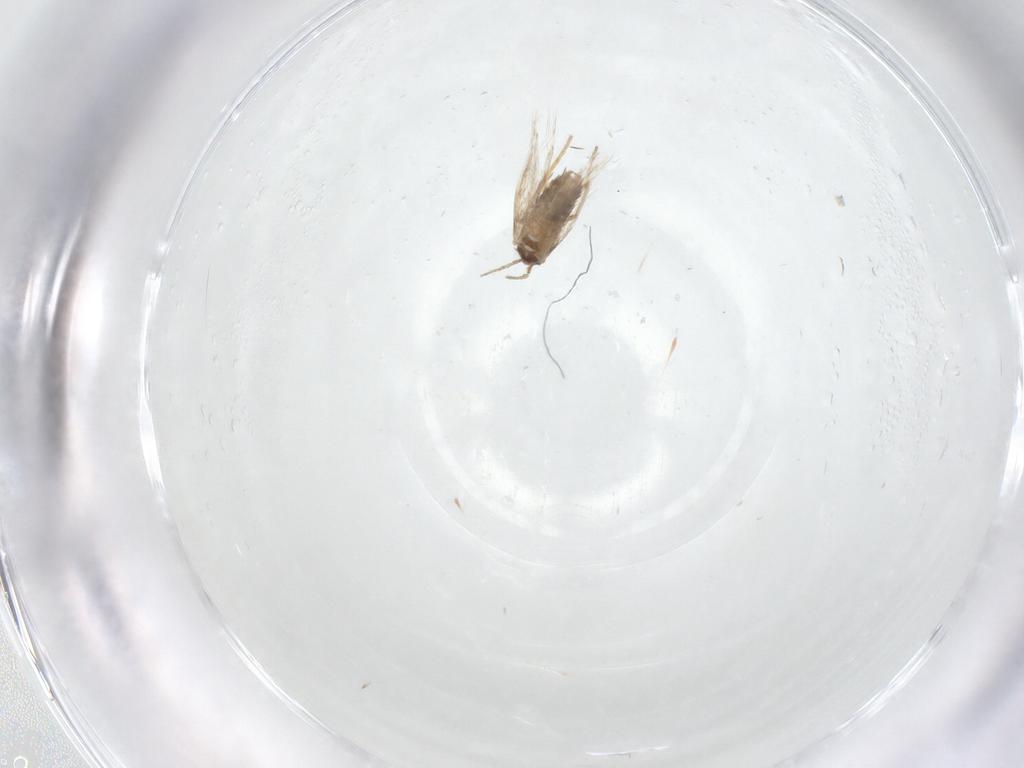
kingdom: Animalia
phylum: Arthropoda
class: Insecta
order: Lepidoptera
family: Nepticulidae
